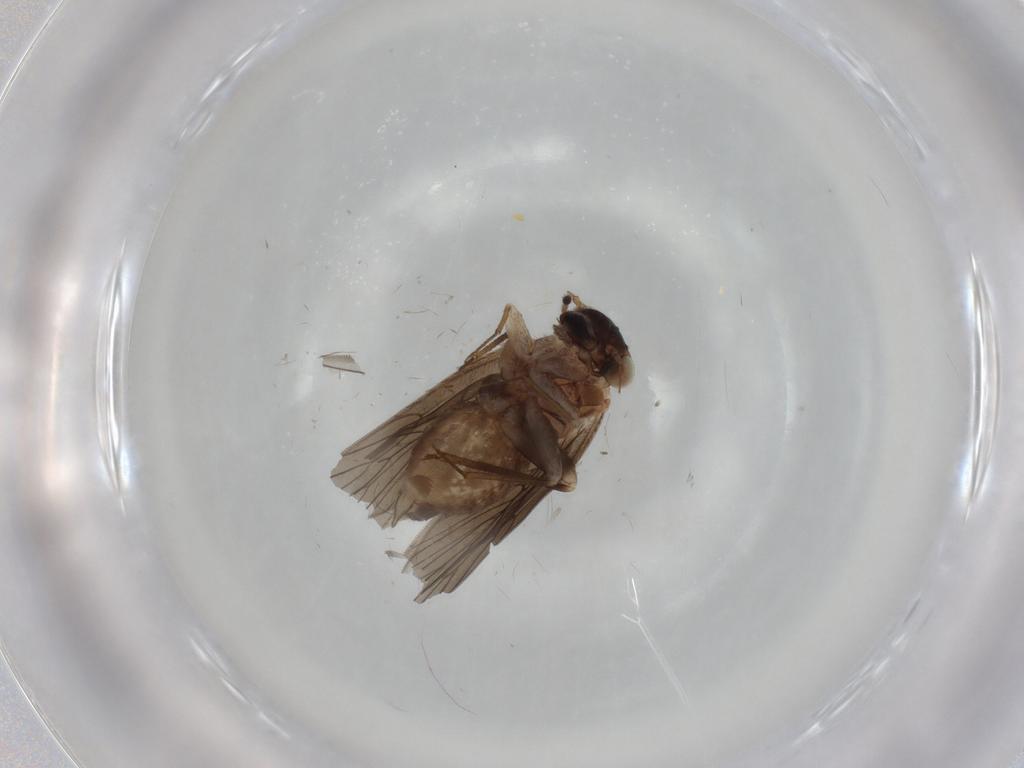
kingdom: Animalia
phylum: Arthropoda
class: Insecta
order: Psocodea
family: Lepidopsocidae
